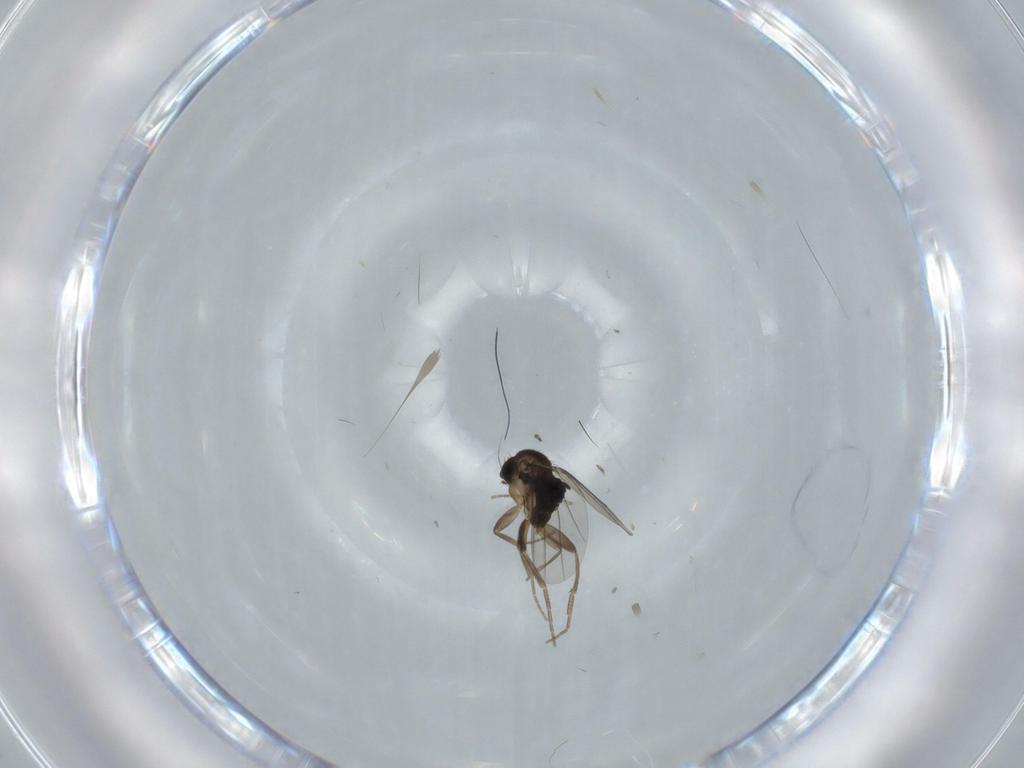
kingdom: Animalia
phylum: Arthropoda
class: Insecta
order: Diptera
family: Phoridae
